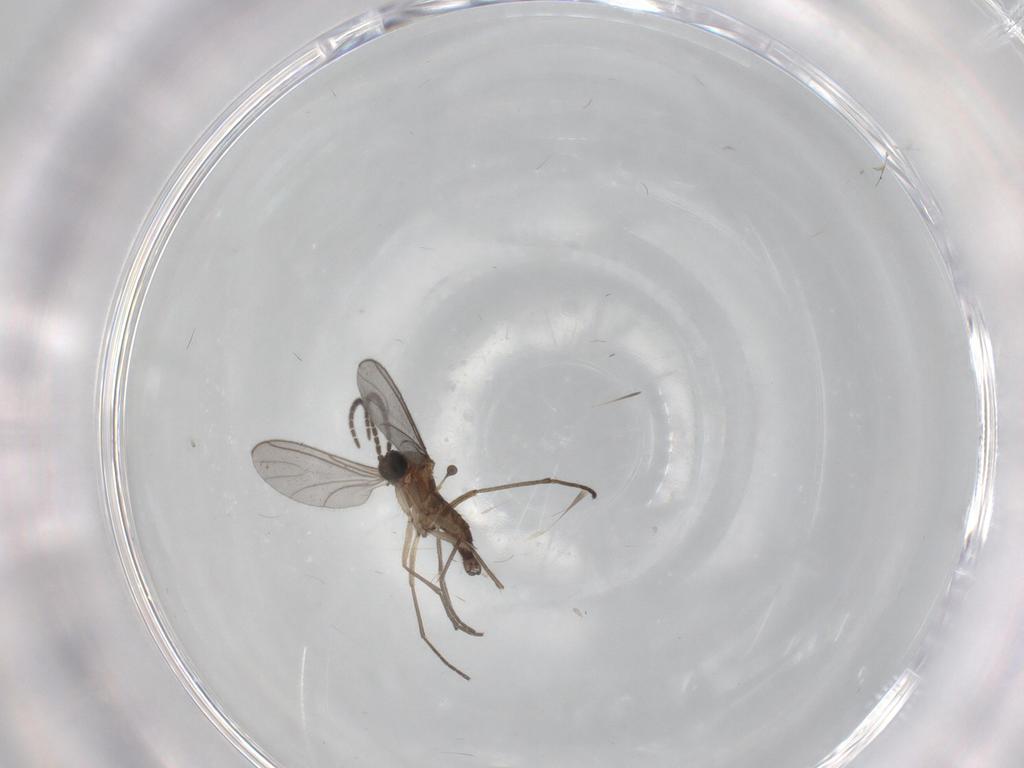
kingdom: Animalia
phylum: Arthropoda
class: Insecta
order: Diptera
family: Sciaridae
